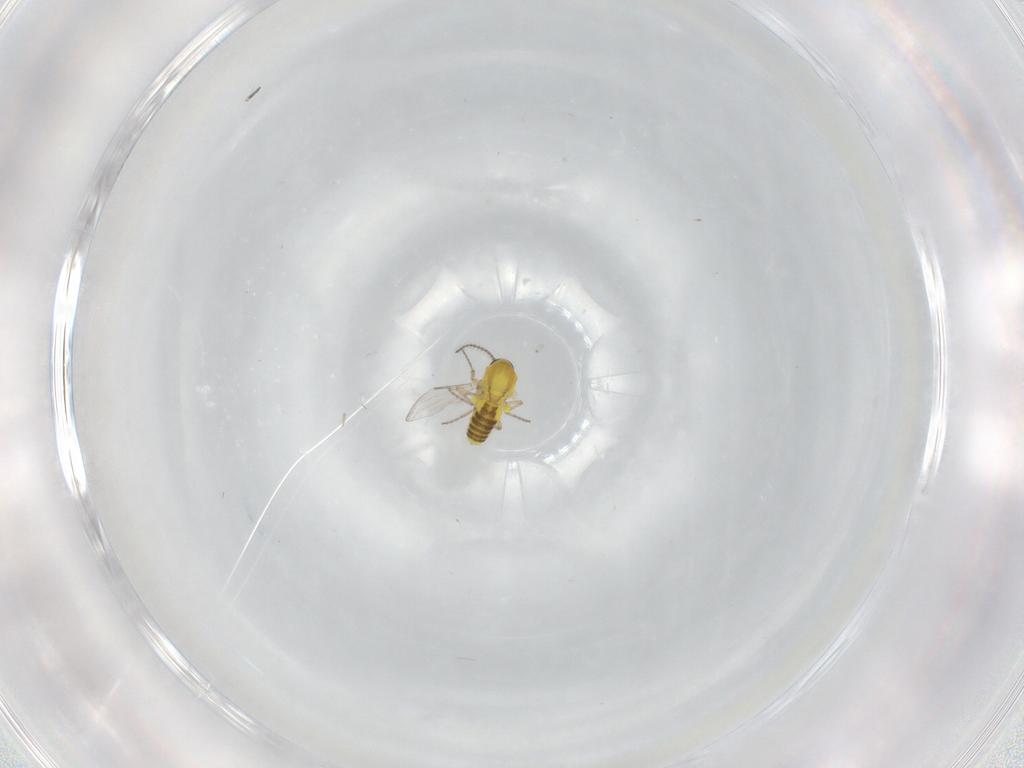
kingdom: Animalia
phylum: Arthropoda
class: Insecta
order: Diptera
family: Ceratopogonidae
